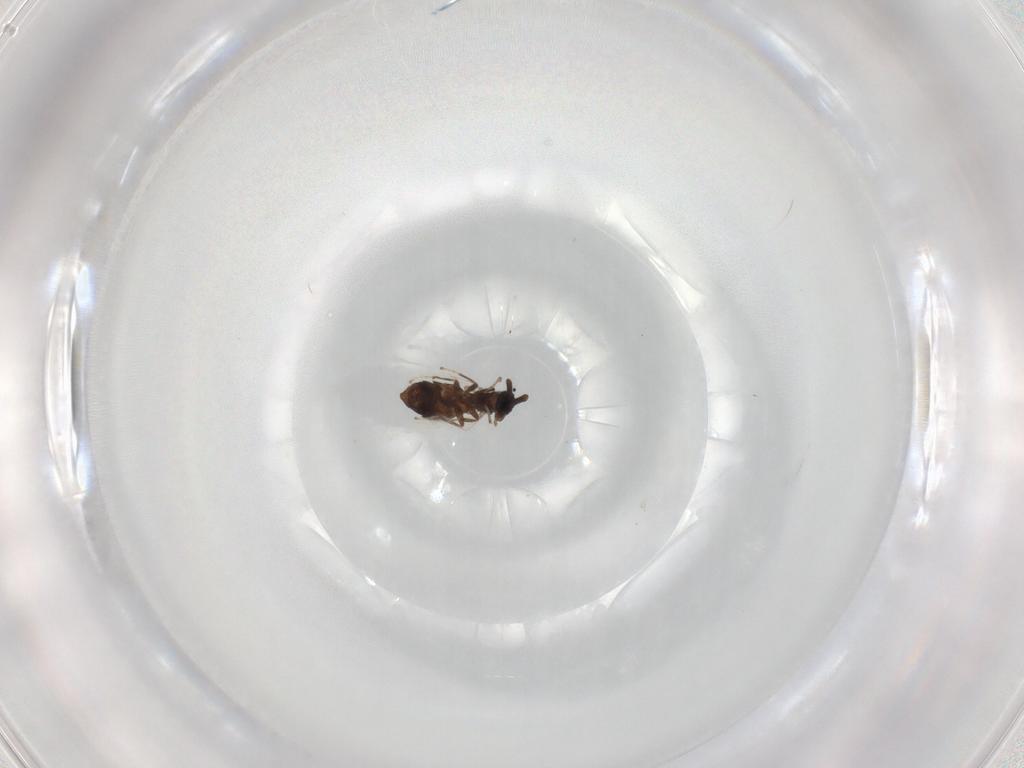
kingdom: Animalia
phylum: Arthropoda
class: Insecta
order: Diptera
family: Scatopsidae
